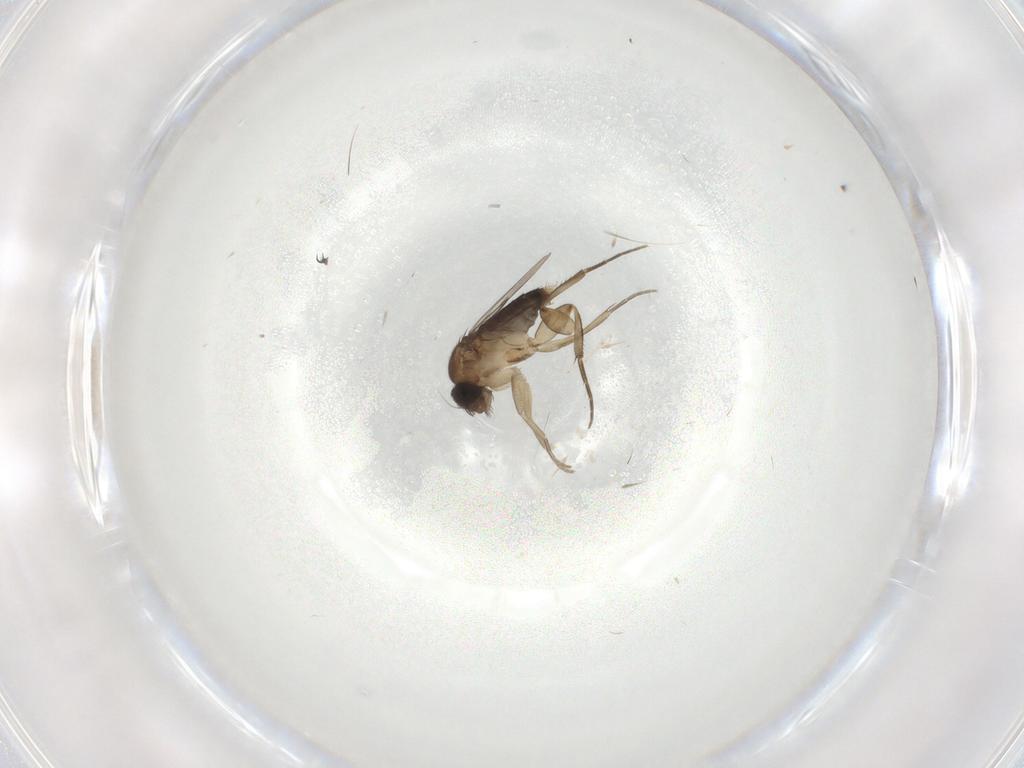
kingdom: Animalia
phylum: Arthropoda
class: Insecta
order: Diptera
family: Phoridae
